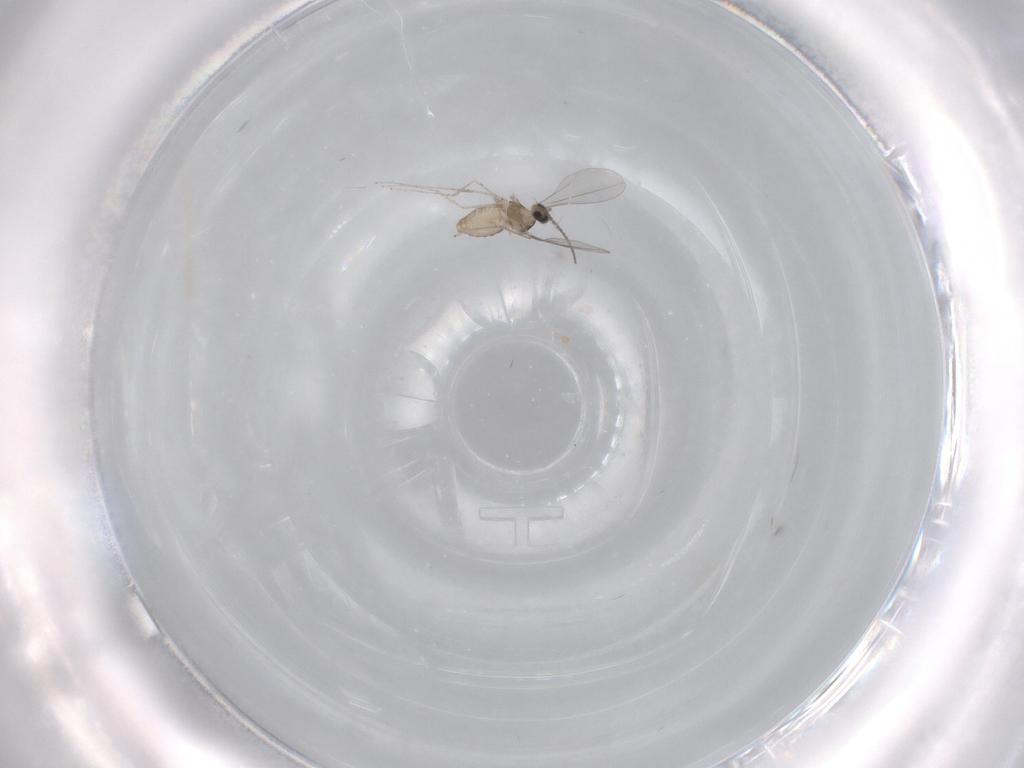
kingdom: Animalia
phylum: Arthropoda
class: Insecta
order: Diptera
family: Cecidomyiidae
